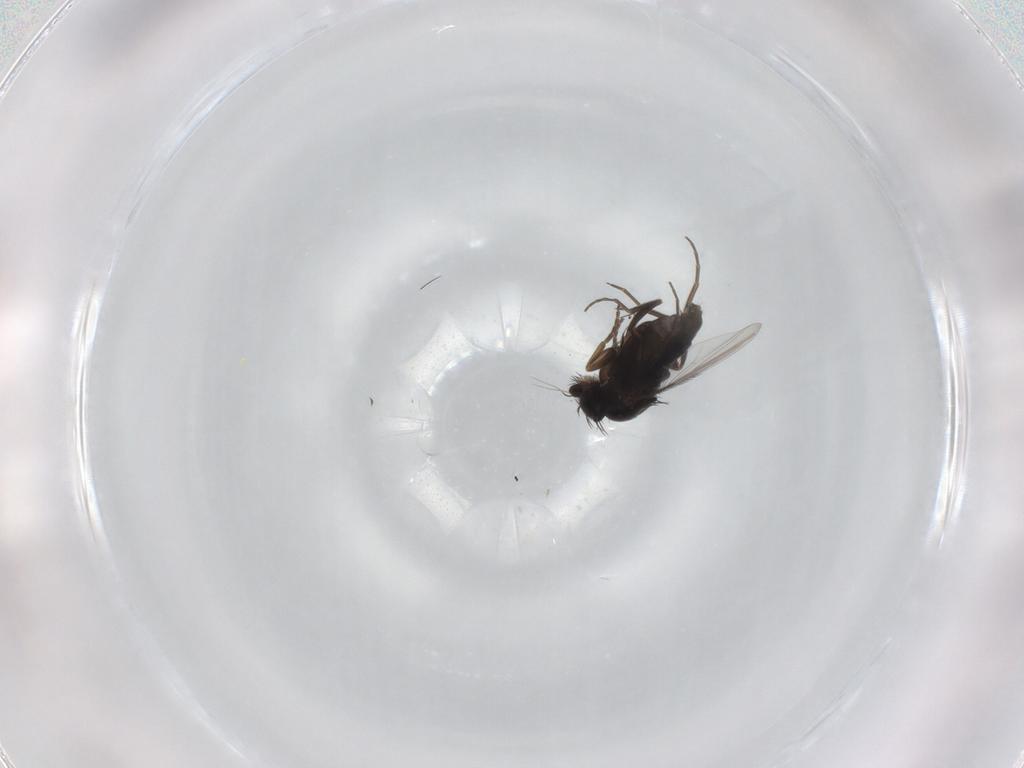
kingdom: Animalia
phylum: Arthropoda
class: Insecta
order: Diptera
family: Phoridae
